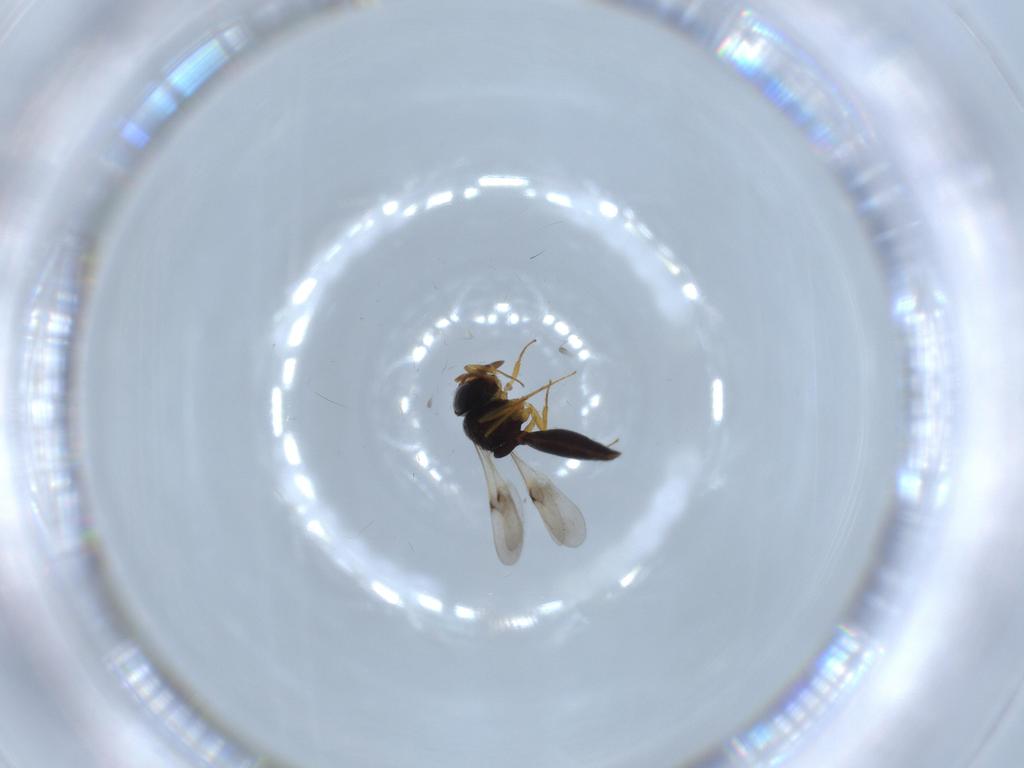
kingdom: Animalia
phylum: Arthropoda
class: Insecta
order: Hymenoptera
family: Formicidae
